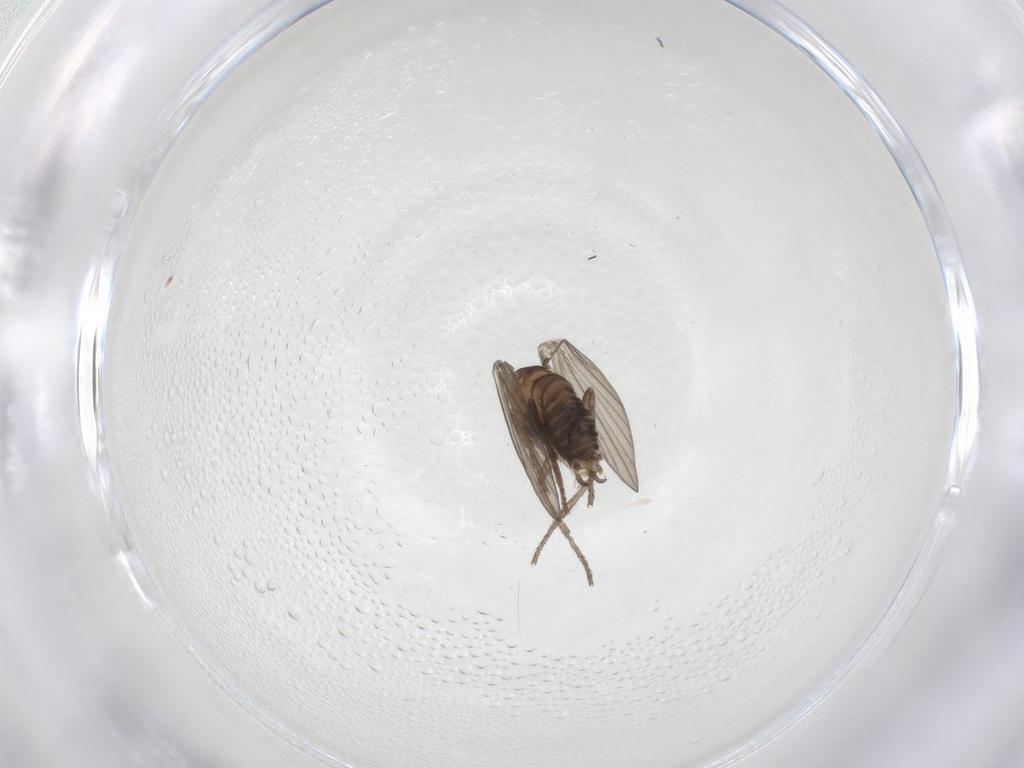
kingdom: Animalia
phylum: Arthropoda
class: Insecta
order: Diptera
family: Psychodidae
